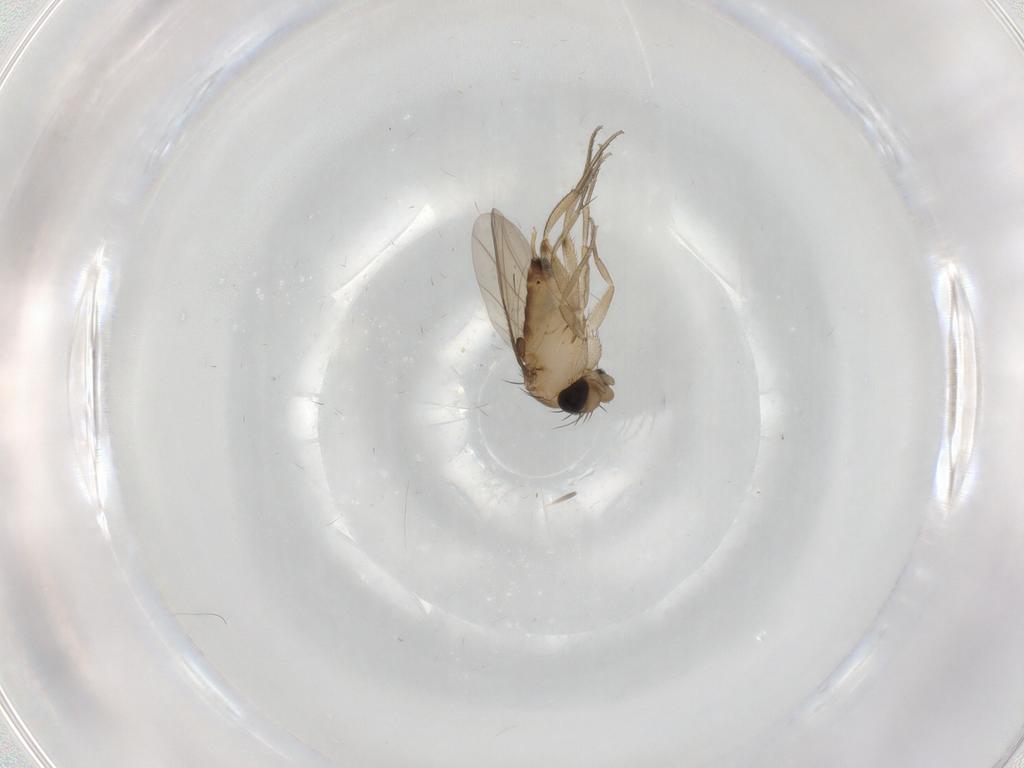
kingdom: Animalia
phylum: Arthropoda
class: Insecta
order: Diptera
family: Phoridae
